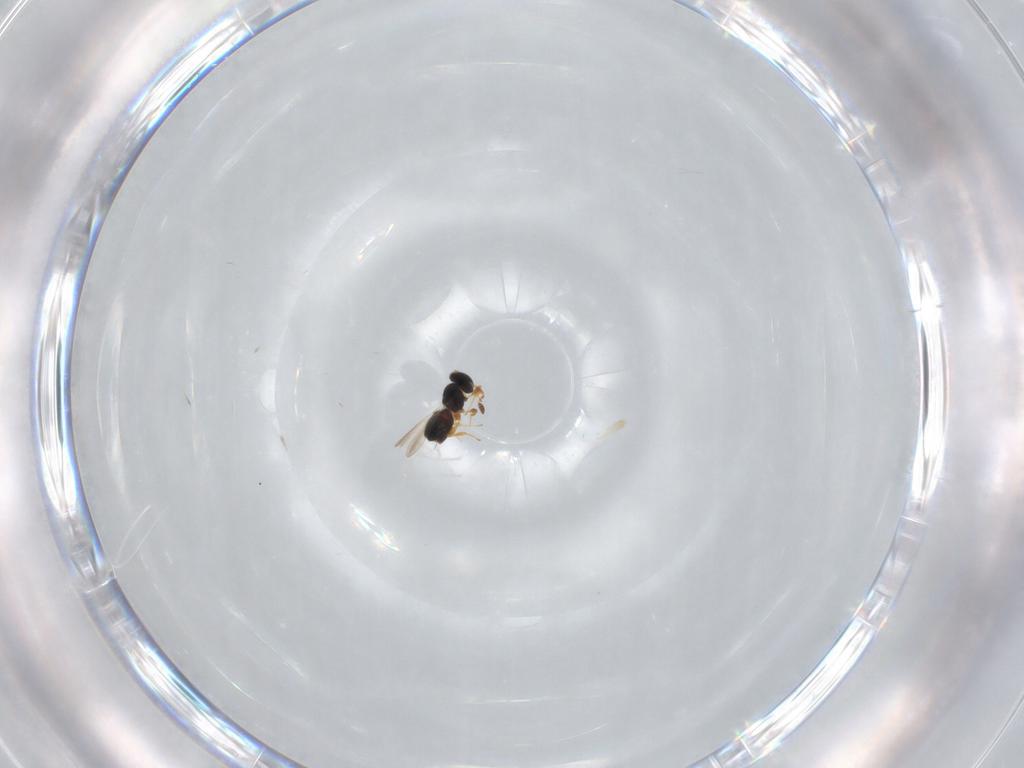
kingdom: Animalia
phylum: Arthropoda
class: Insecta
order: Hymenoptera
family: Platygastridae
